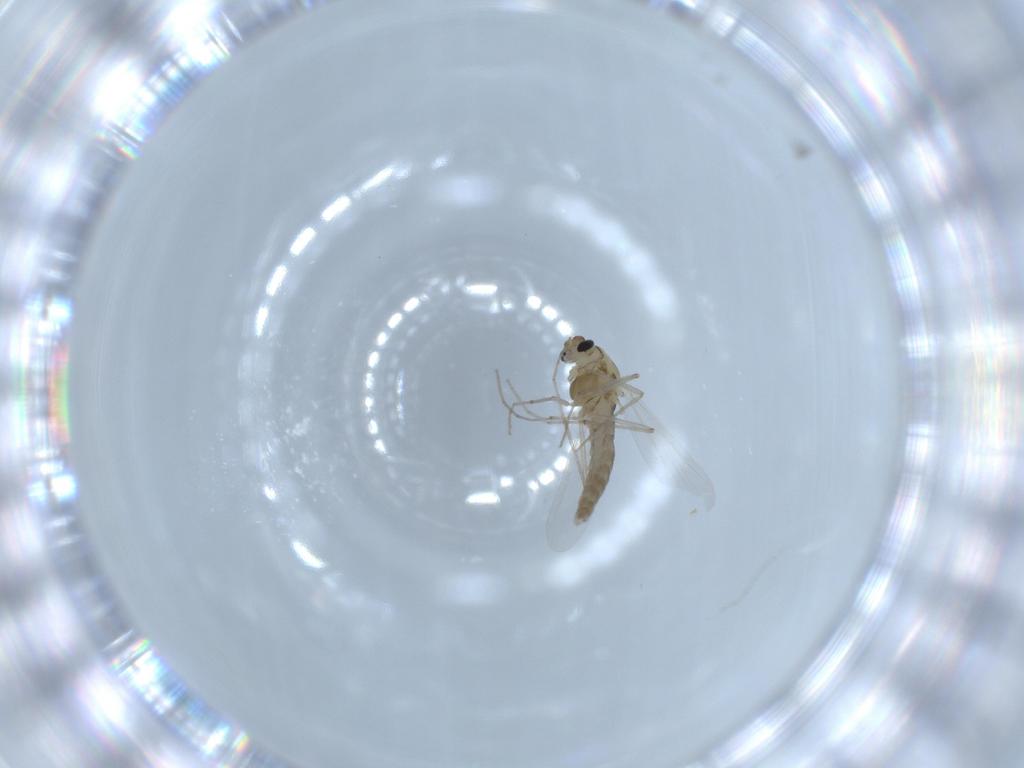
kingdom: Animalia
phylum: Arthropoda
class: Insecta
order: Diptera
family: Chironomidae
